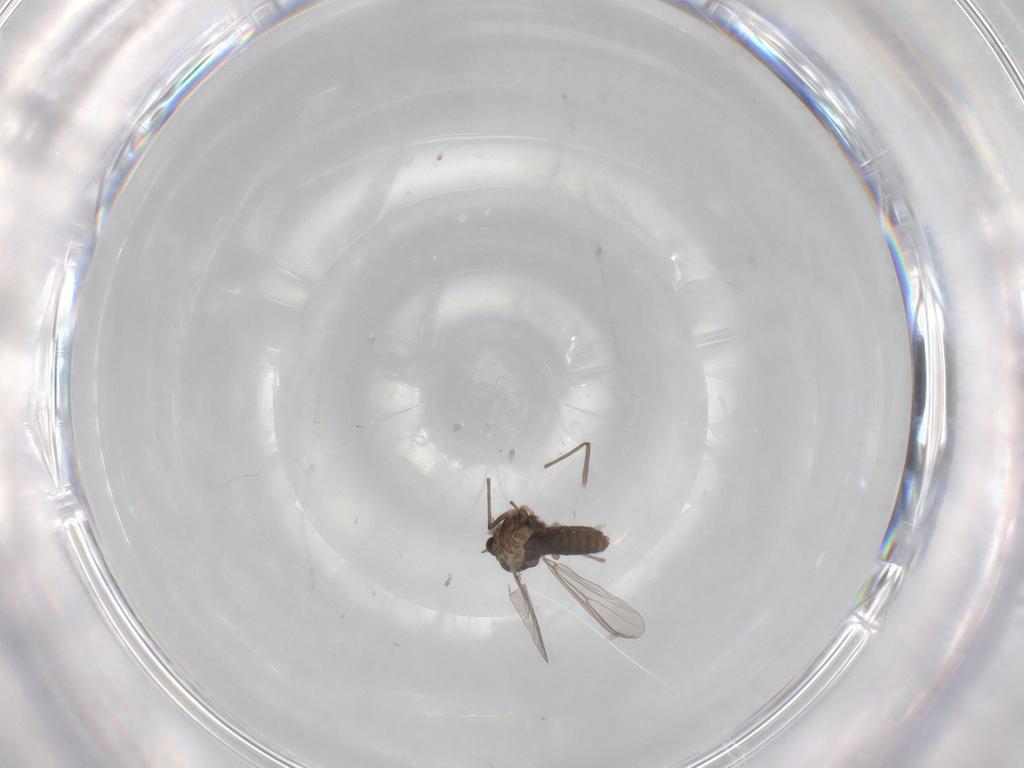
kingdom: Animalia
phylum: Arthropoda
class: Insecta
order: Diptera
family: Chironomidae
